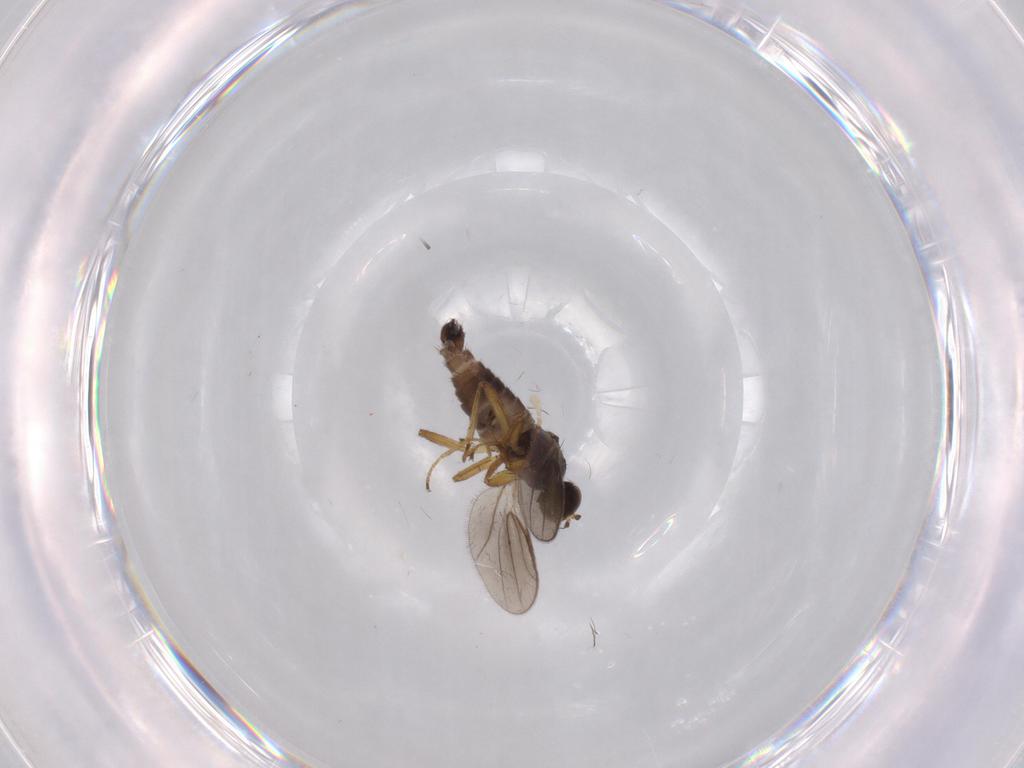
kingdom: Animalia
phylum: Arthropoda
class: Insecta
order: Diptera
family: Hybotidae
